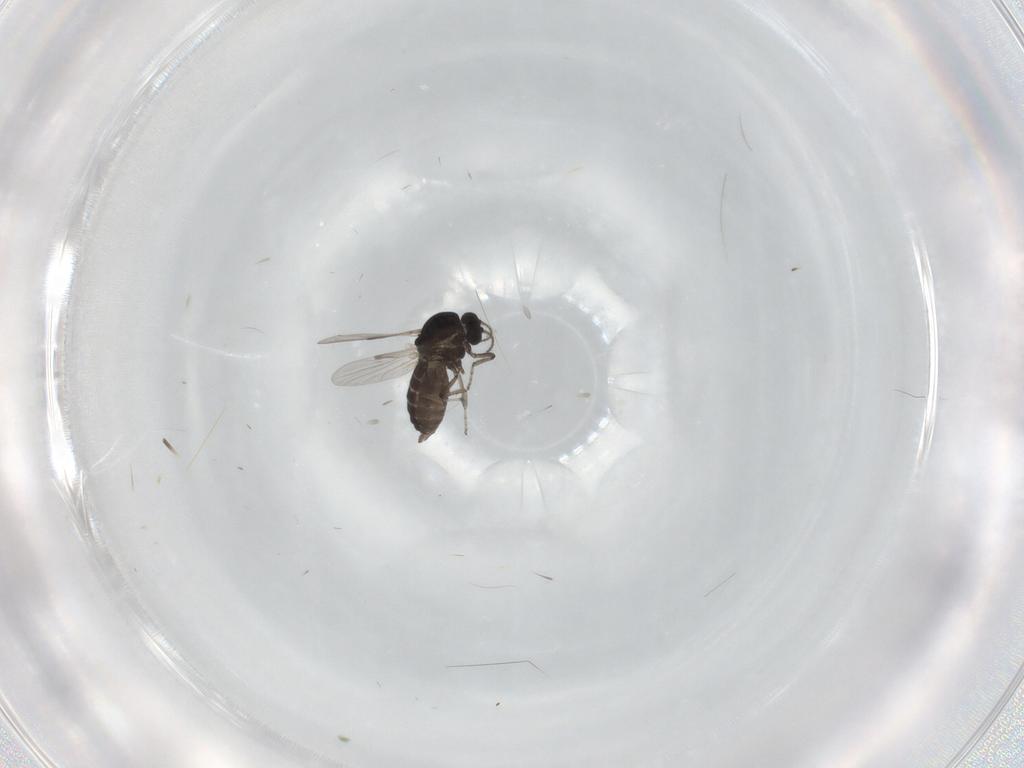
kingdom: Animalia
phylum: Arthropoda
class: Insecta
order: Diptera
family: Ceratopogonidae
